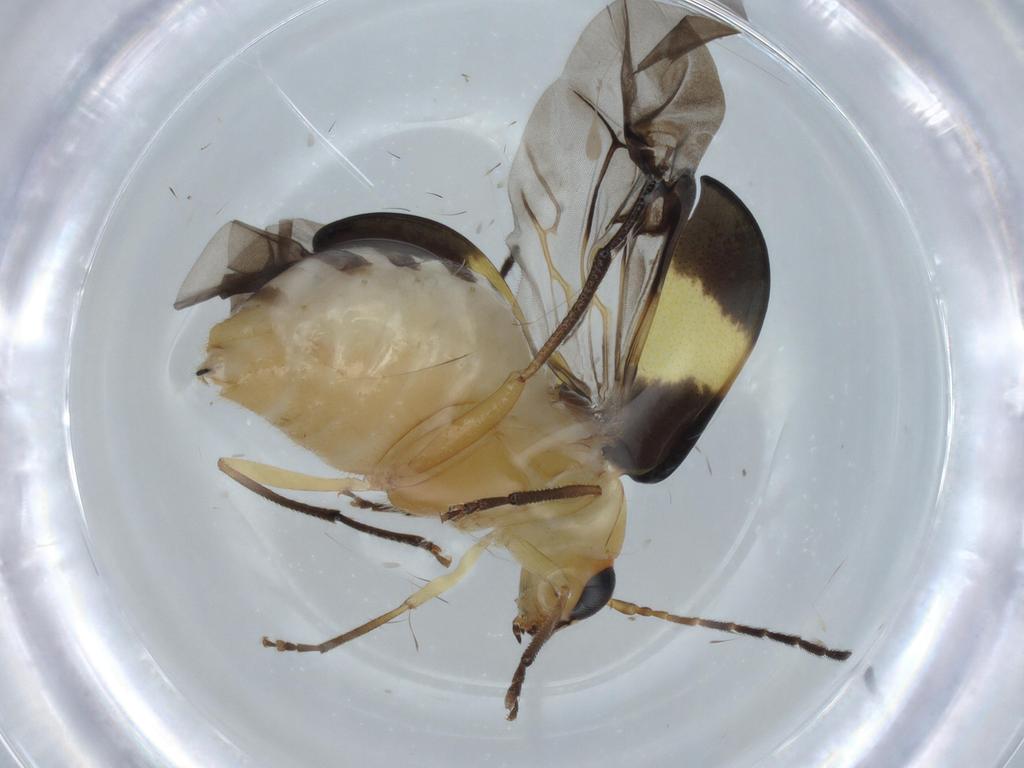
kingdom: Animalia
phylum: Arthropoda
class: Insecta
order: Coleoptera
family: Chrysomelidae
